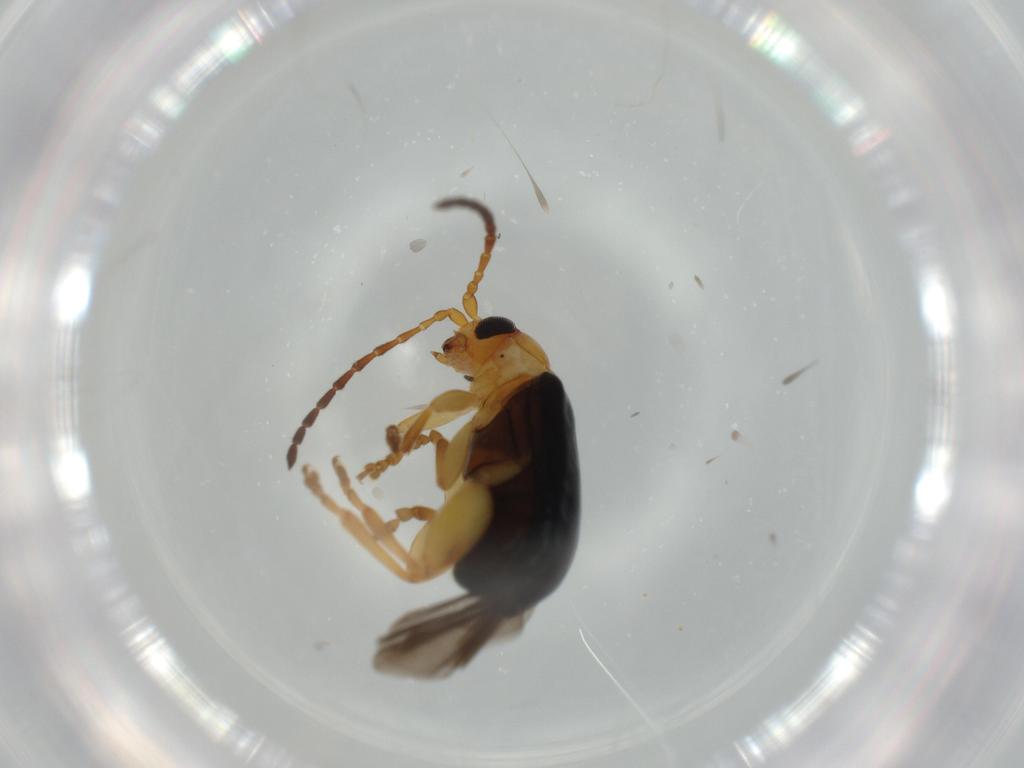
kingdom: Animalia
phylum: Arthropoda
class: Insecta
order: Coleoptera
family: Chrysomelidae
